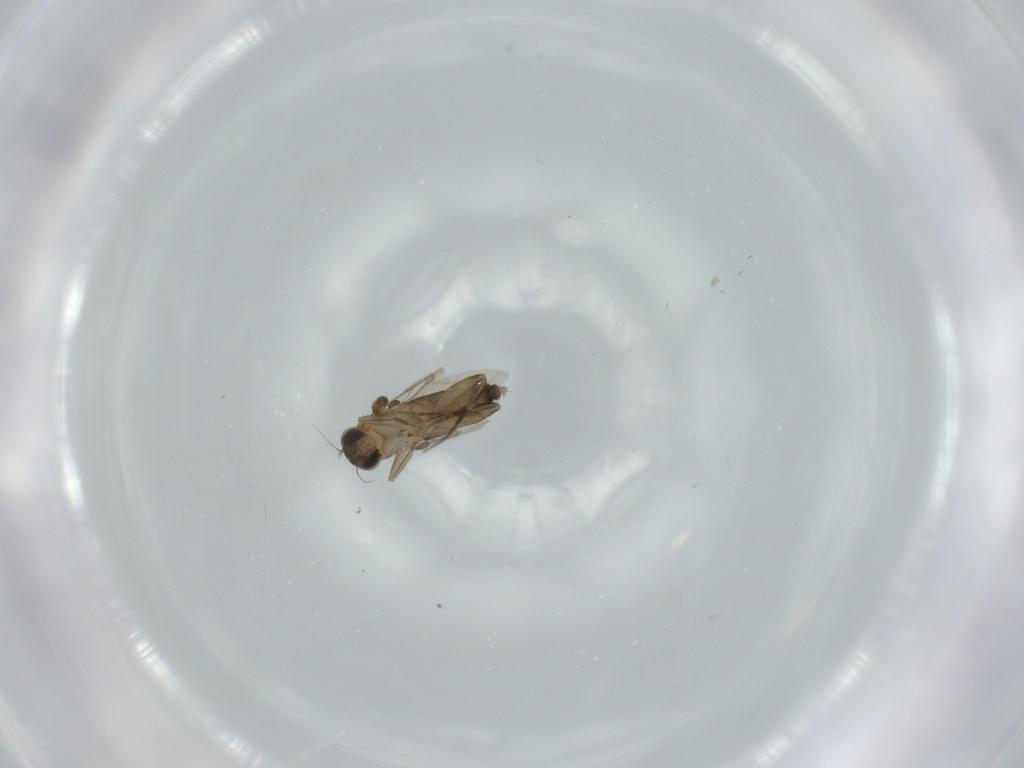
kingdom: Animalia
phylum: Arthropoda
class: Insecta
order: Diptera
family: Phoridae
